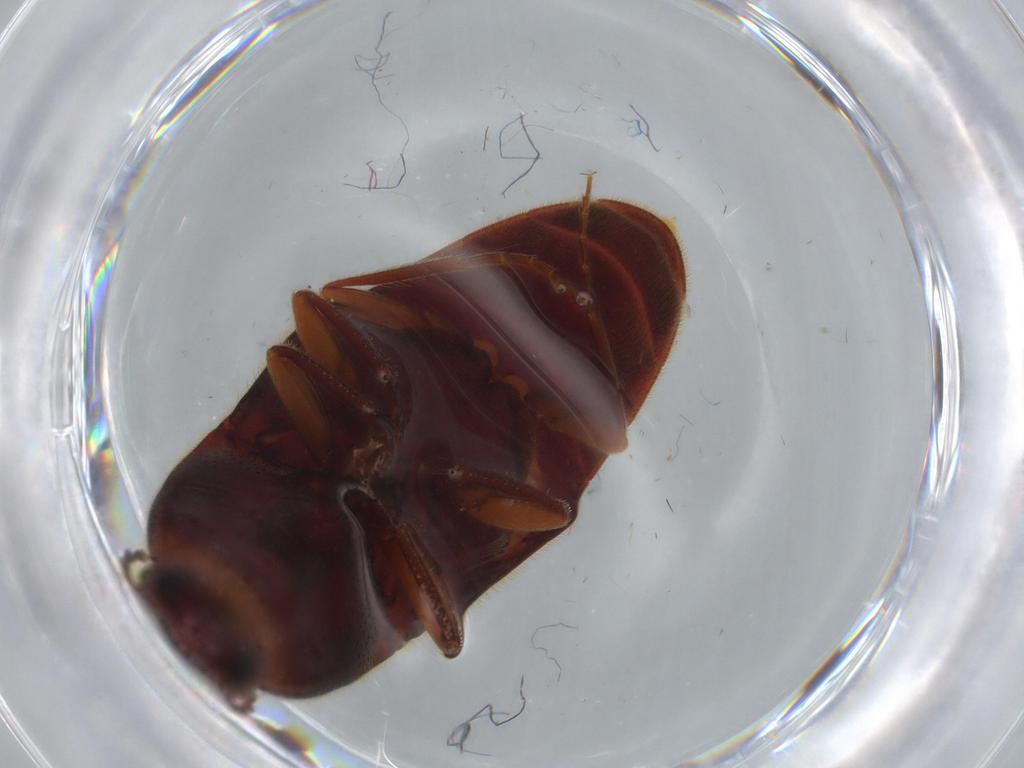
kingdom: Animalia
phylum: Arthropoda
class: Insecta
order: Coleoptera
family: Elateridae
